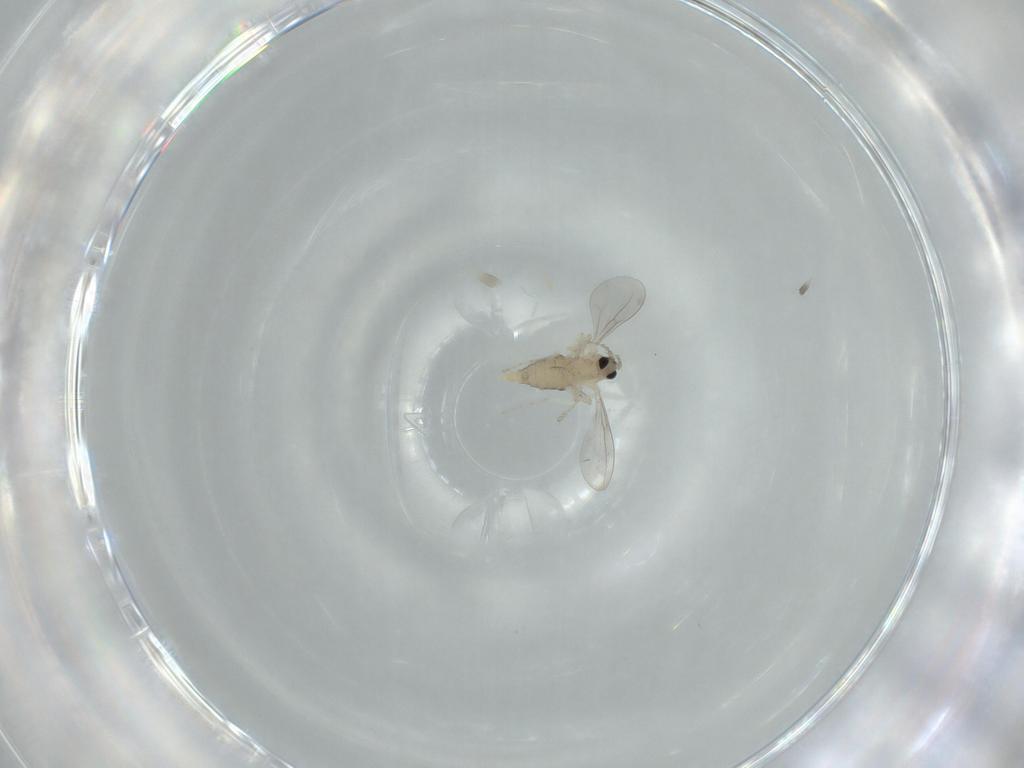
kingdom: Animalia
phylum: Arthropoda
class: Insecta
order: Diptera
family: Cecidomyiidae
